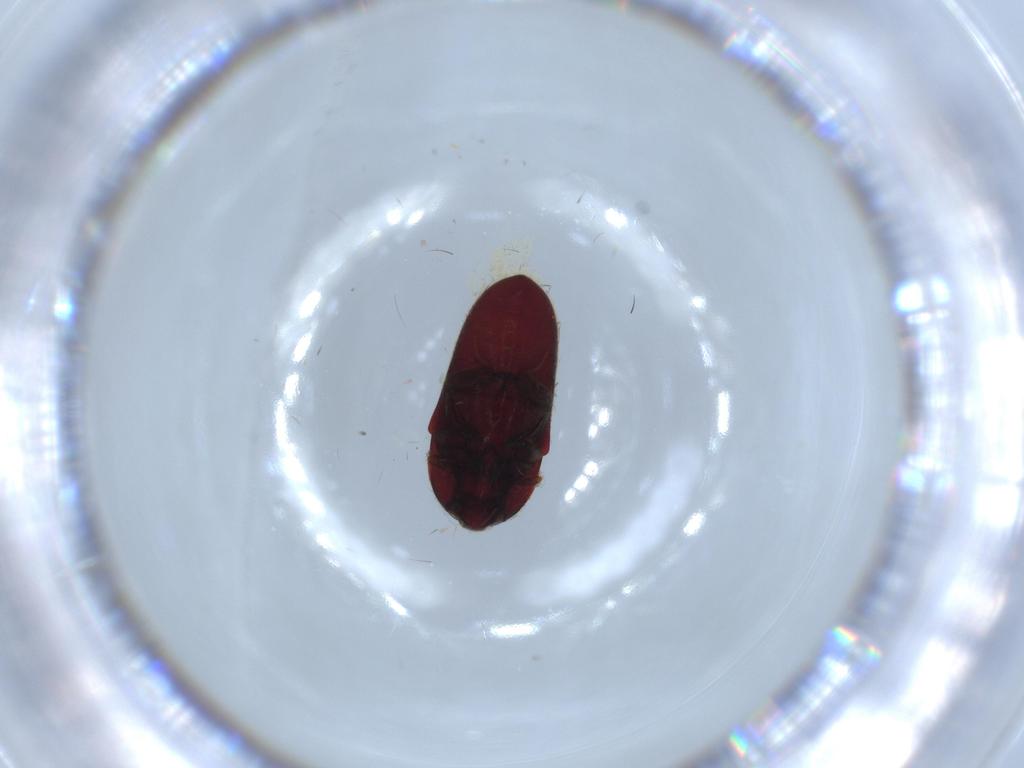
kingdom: Animalia
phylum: Arthropoda
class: Insecta
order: Coleoptera
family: Throscidae
